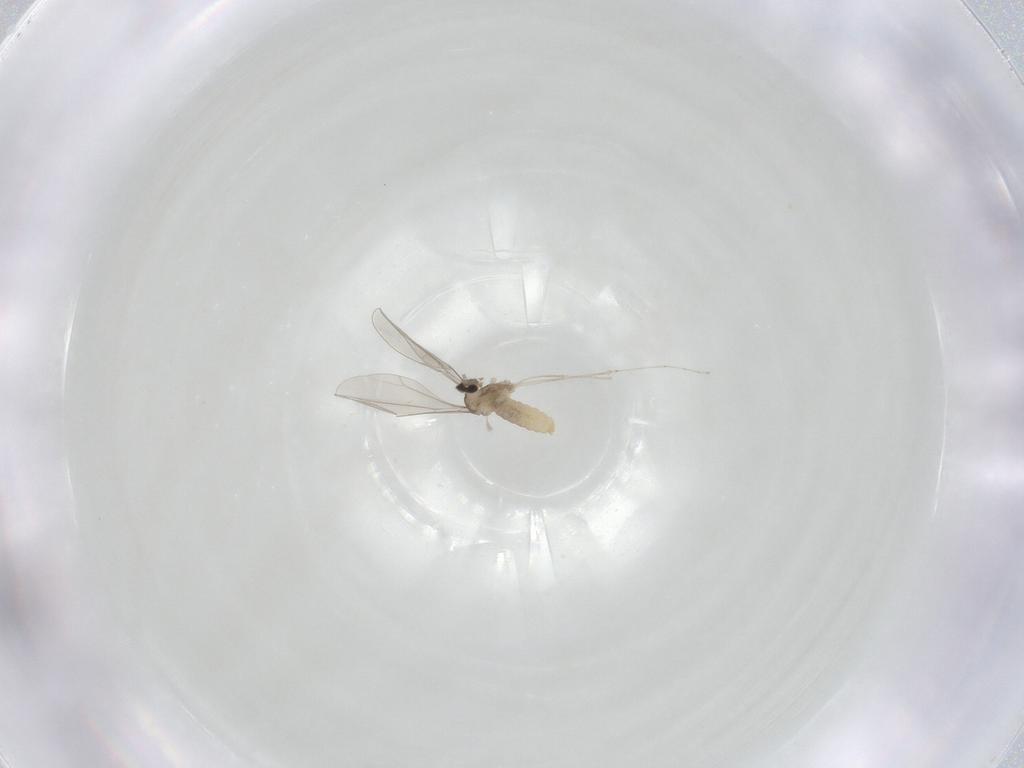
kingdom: Animalia
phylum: Arthropoda
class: Insecta
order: Diptera
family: Cecidomyiidae
